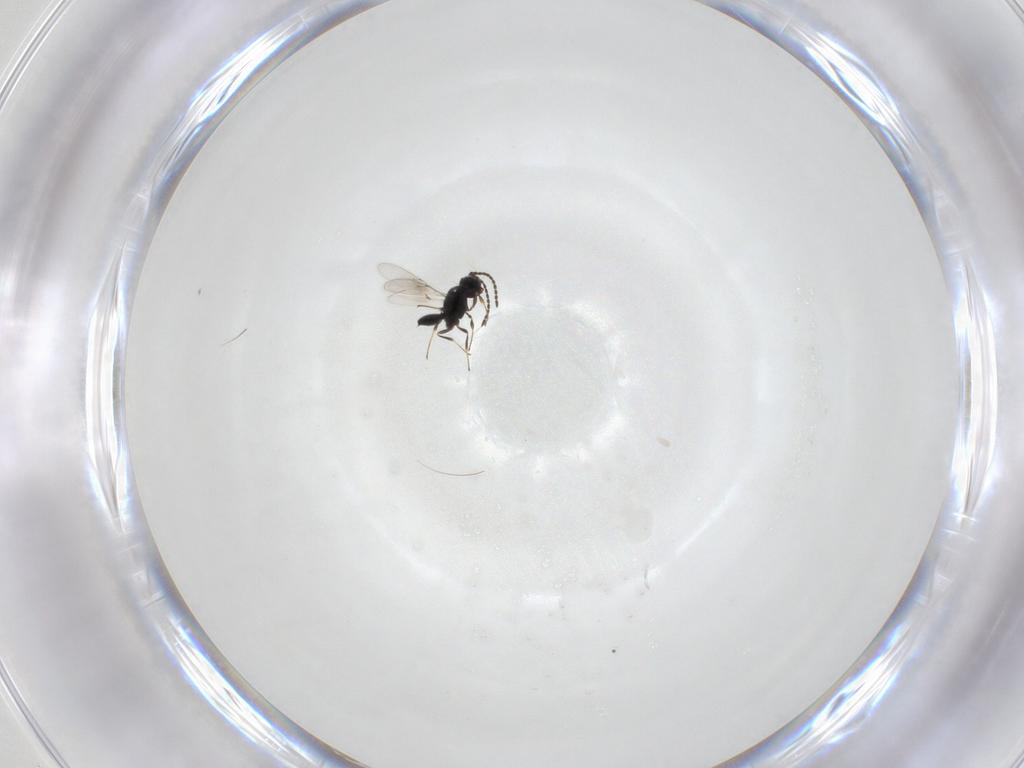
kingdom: Animalia
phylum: Arthropoda
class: Insecta
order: Hymenoptera
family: Scelionidae
